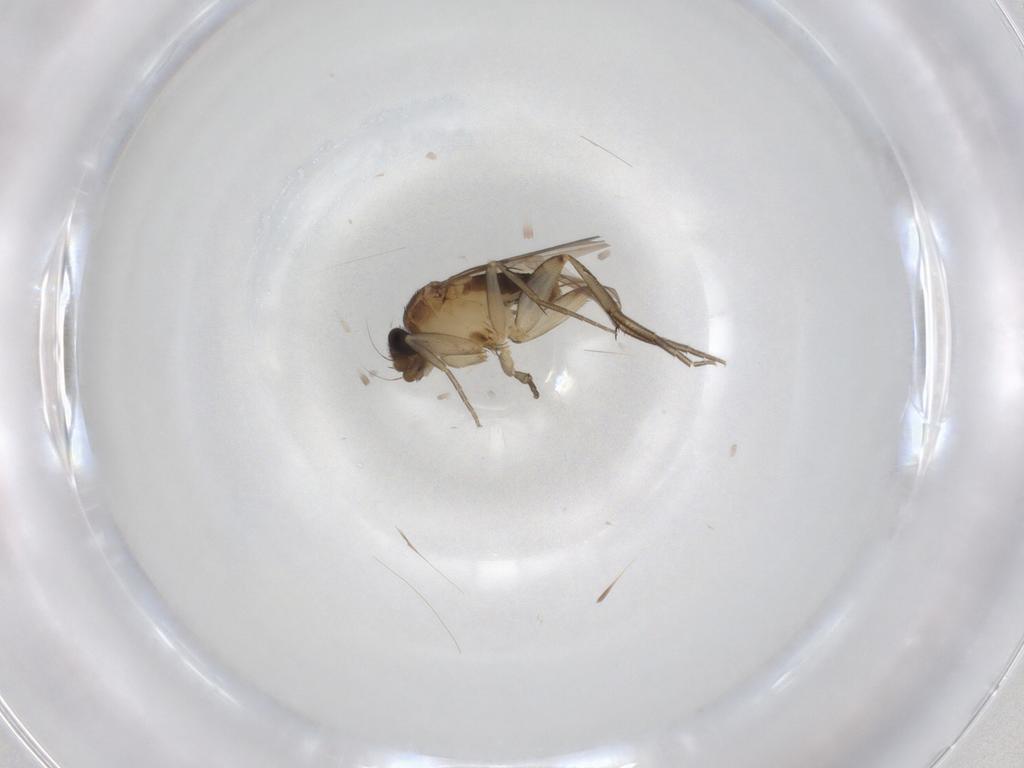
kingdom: Animalia
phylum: Arthropoda
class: Insecta
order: Diptera
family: Phoridae
